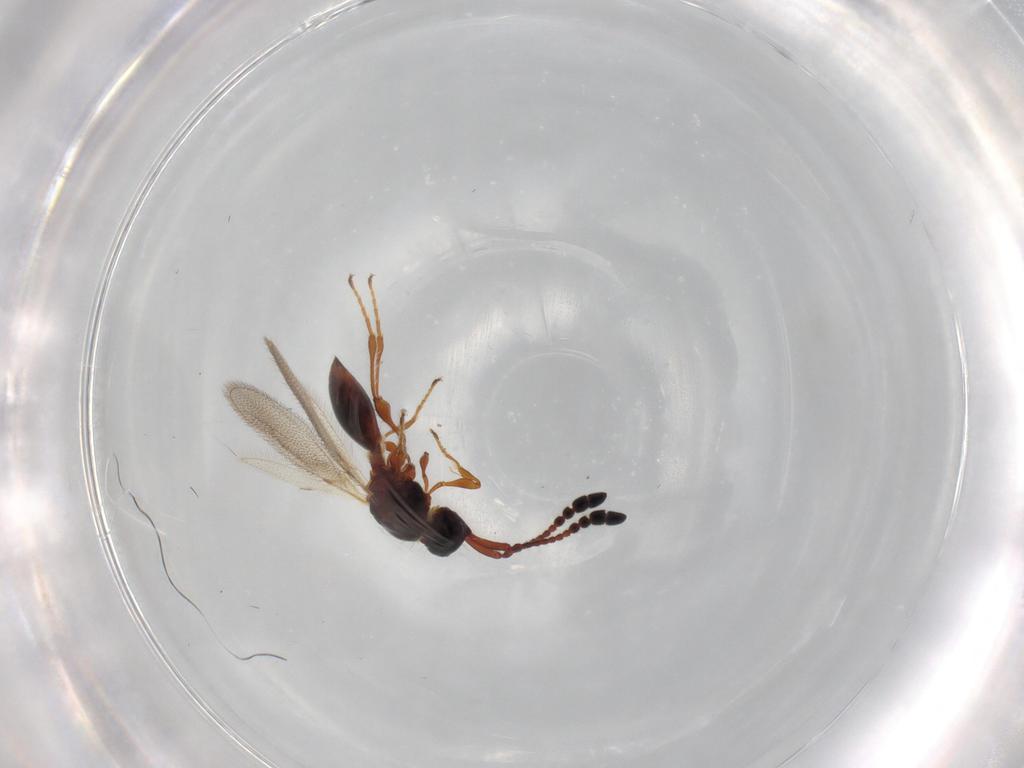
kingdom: Animalia
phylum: Arthropoda
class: Insecta
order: Hymenoptera
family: Diapriidae
